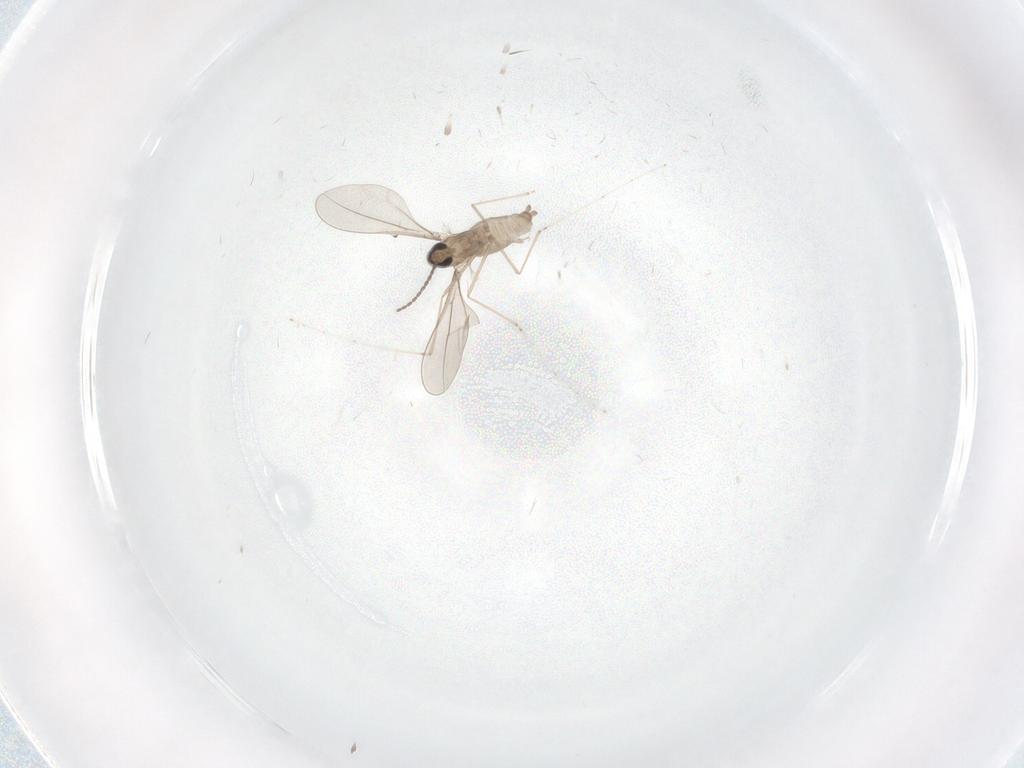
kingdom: Animalia
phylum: Arthropoda
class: Insecta
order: Diptera
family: Cecidomyiidae
